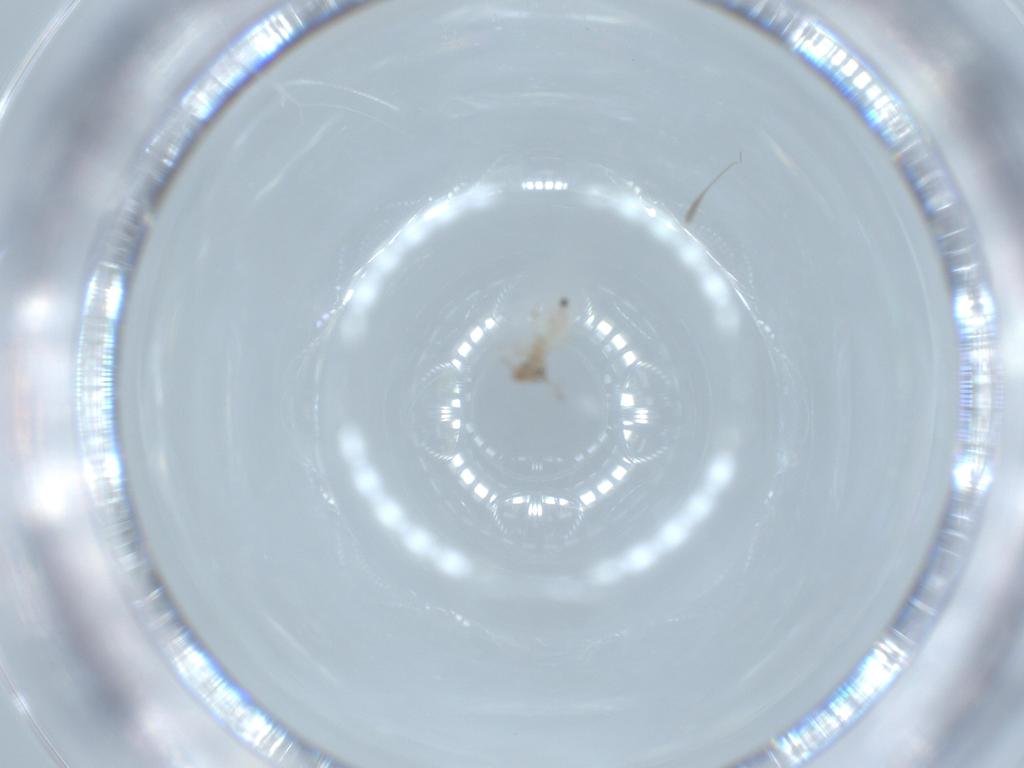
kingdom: Animalia
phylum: Arthropoda
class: Insecta
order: Psocodea
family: Lepidopsocidae
